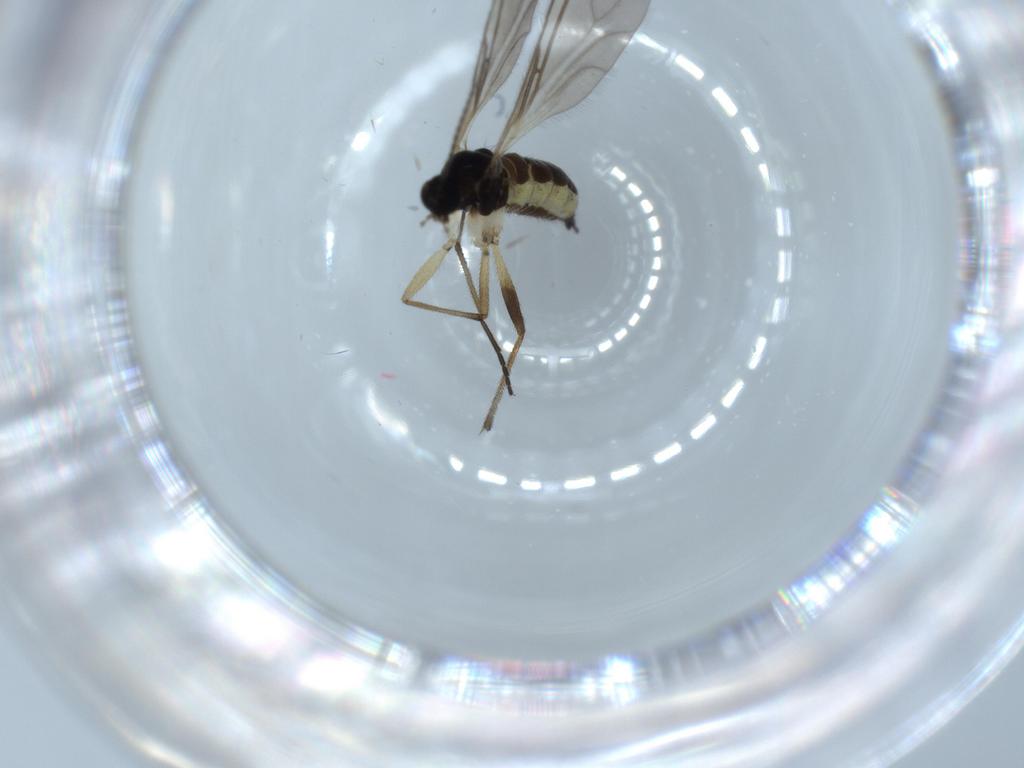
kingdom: Animalia
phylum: Arthropoda
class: Insecta
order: Diptera
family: Sciaridae
